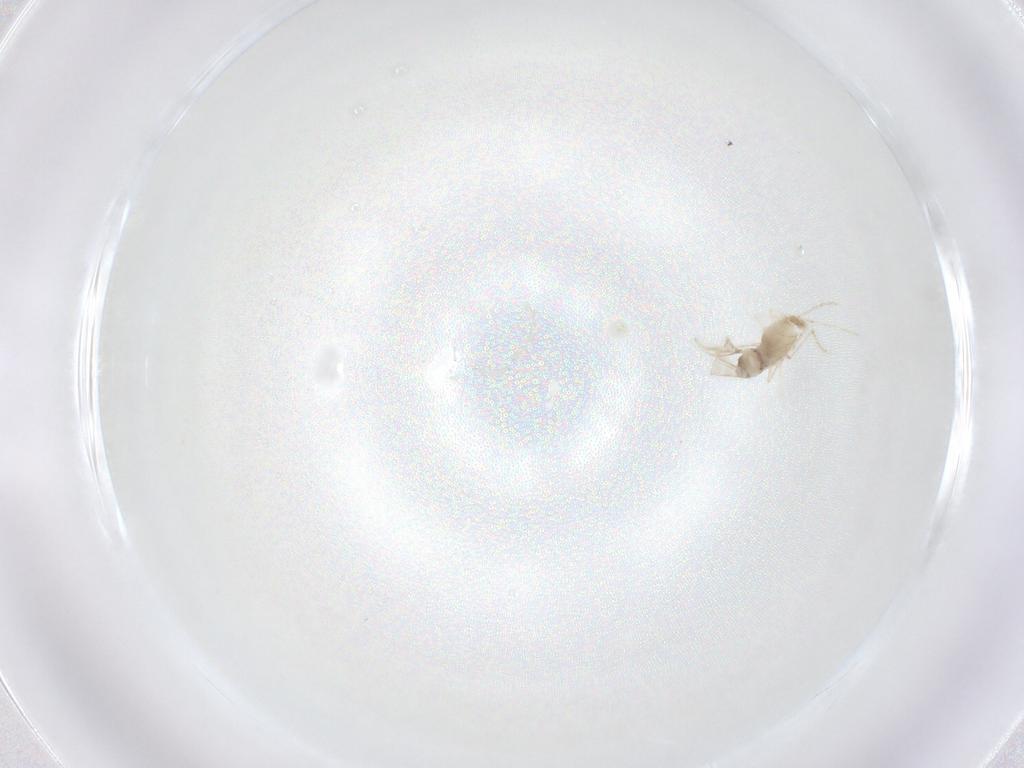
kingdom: Animalia
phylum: Arthropoda
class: Insecta
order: Diptera
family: Cecidomyiidae
